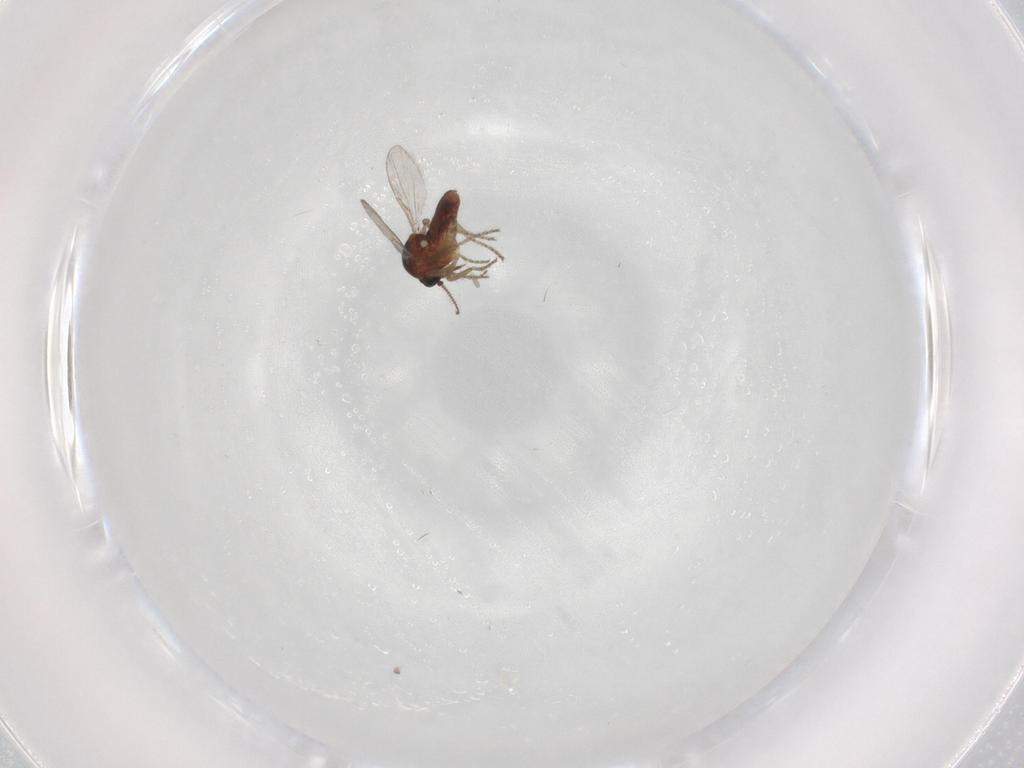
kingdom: Animalia
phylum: Arthropoda
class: Insecta
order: Diptera
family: Ceratopogonidae
